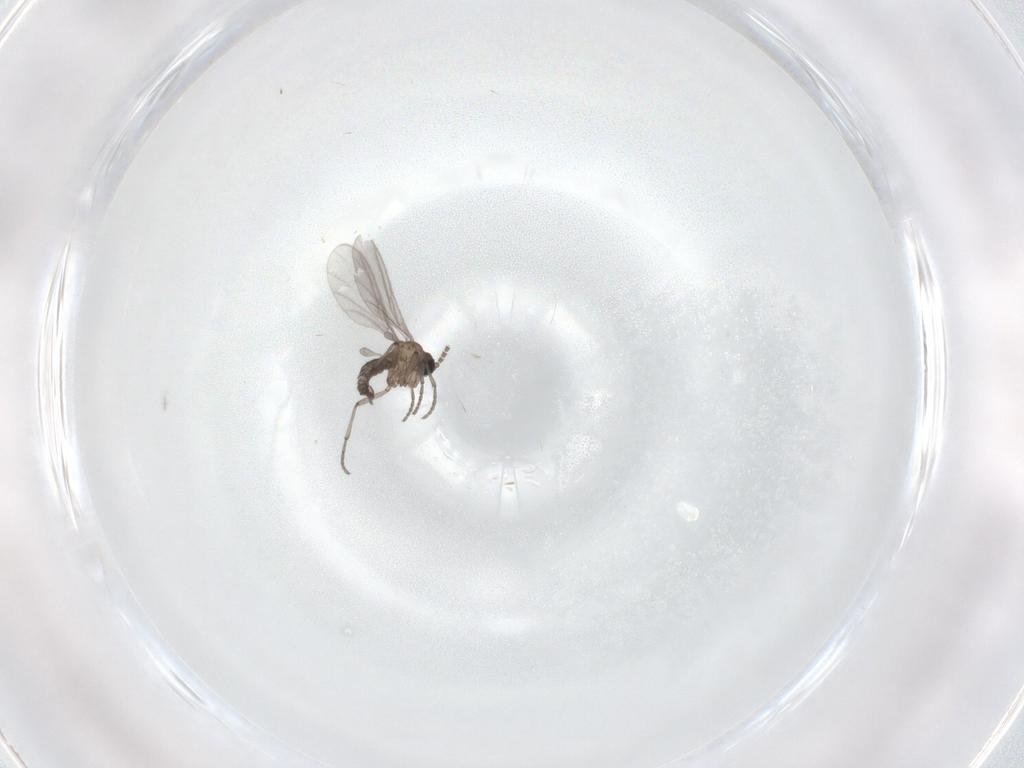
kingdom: Animalia
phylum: Arthropoda
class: Insecta
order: Diptera
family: Sciaridae
